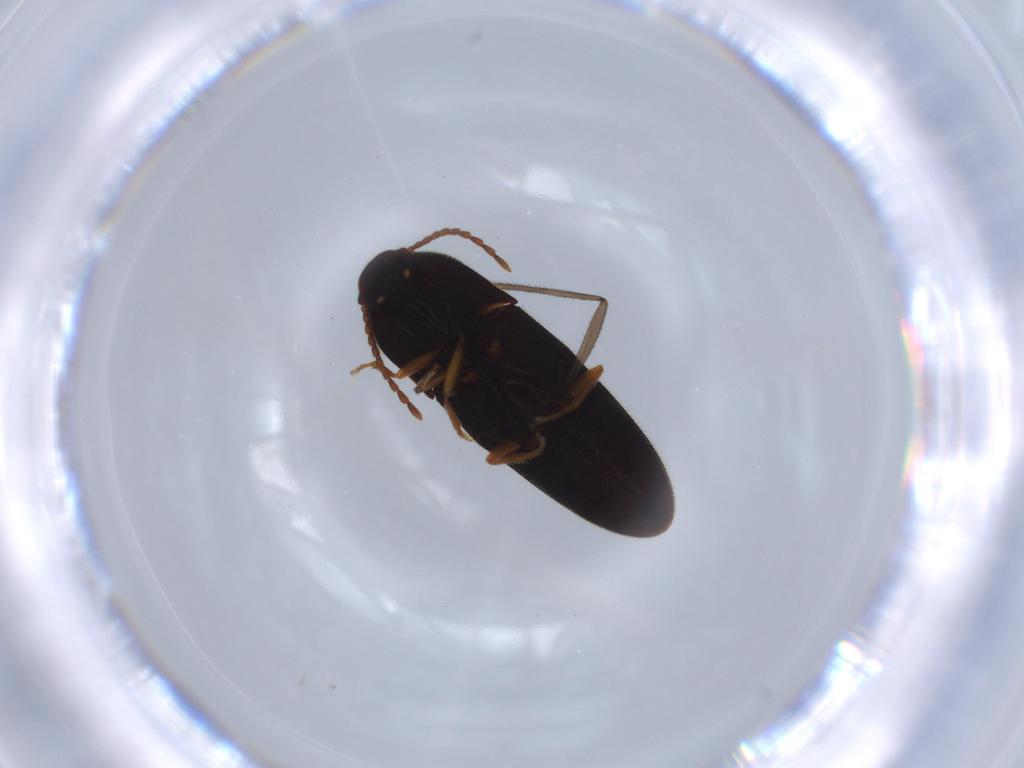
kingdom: Animalia
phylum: Arthropoda
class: Insecta
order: Coleoptera
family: Elateridae
